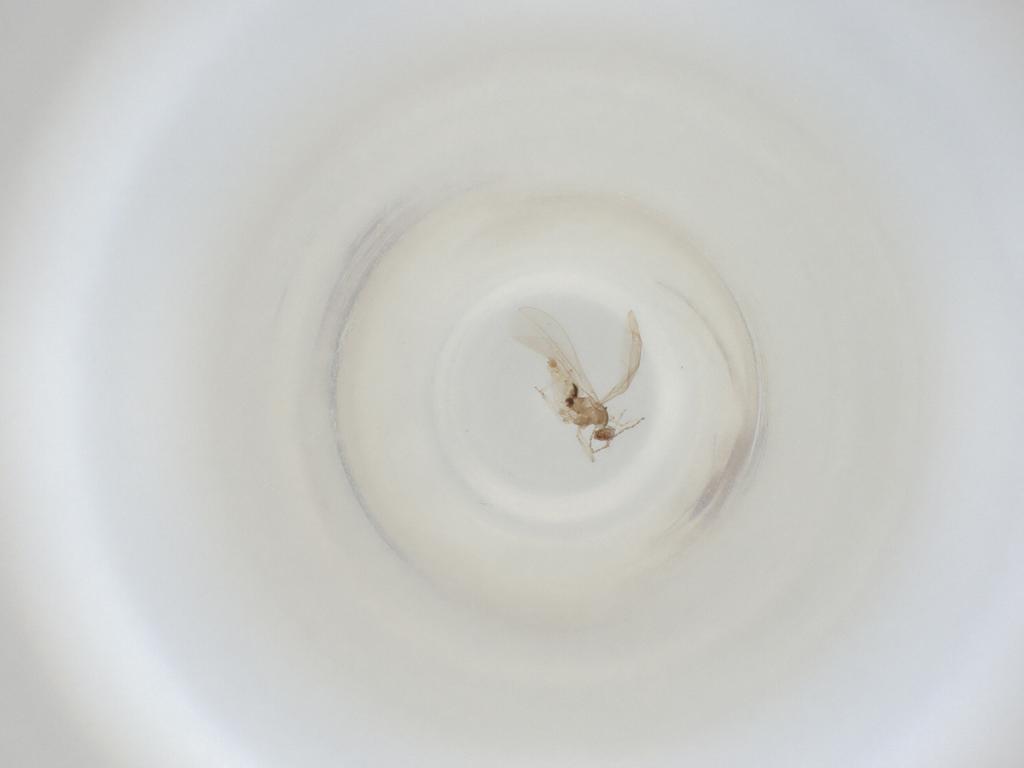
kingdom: Animalia
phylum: Arthropoda
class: Insecta
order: Diptera
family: Cecidomyiidae
